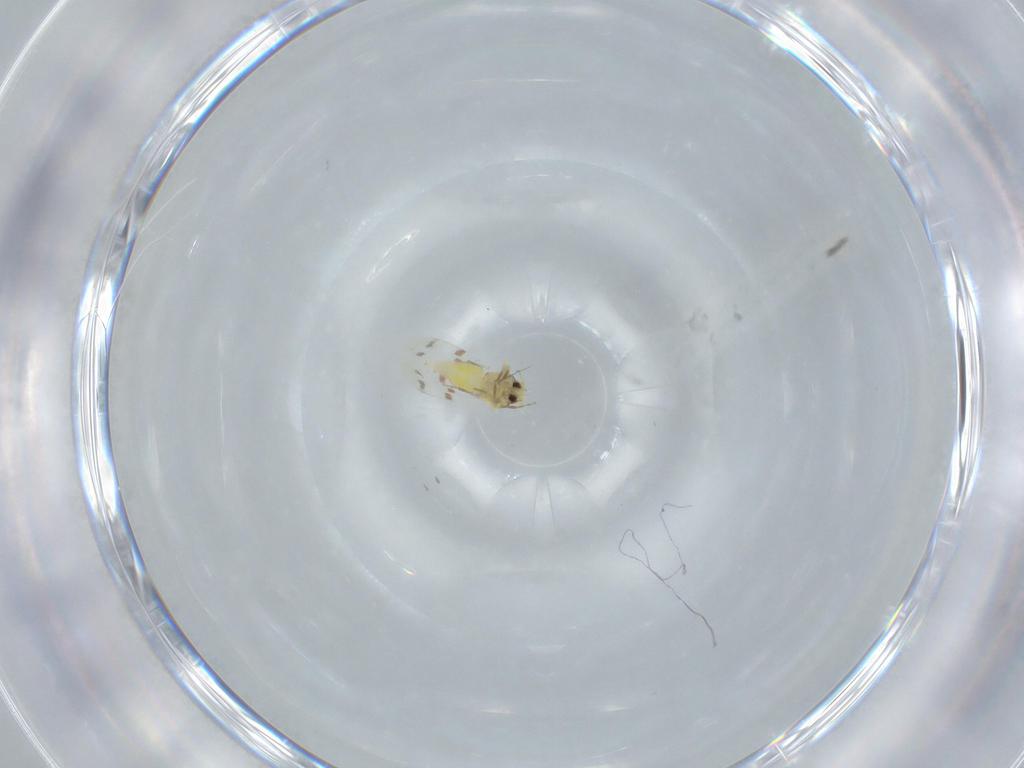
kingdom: Animalia
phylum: Arthropoda
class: Insecta
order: Hemiptera
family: Aleyrodidae
